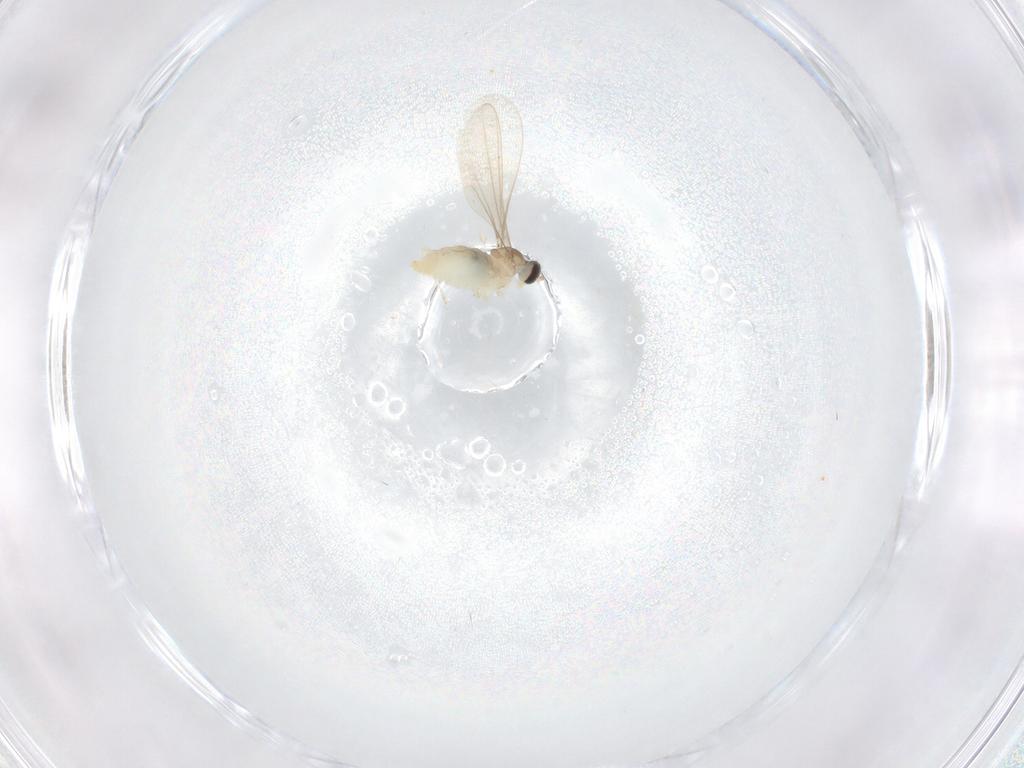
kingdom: Animalia
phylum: Arthropoda
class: Insecta
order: Diptera
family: Cecidomyiidae
